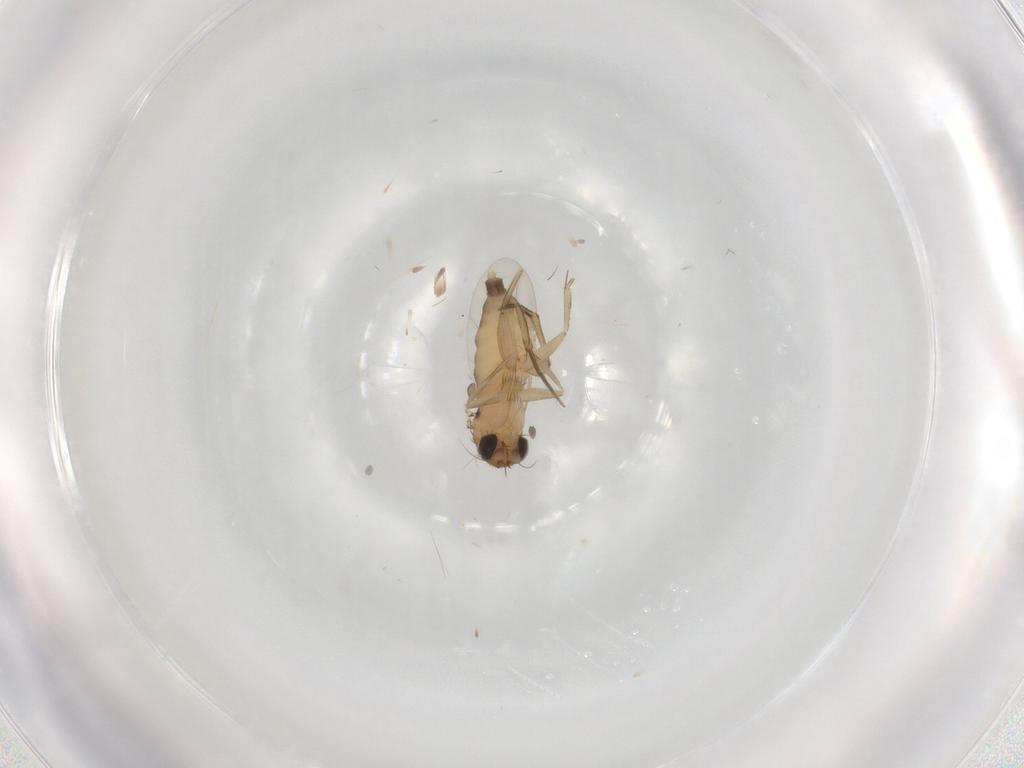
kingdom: Animalia
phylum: Arthropoda
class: Insecta
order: Diptera
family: Phoridae
